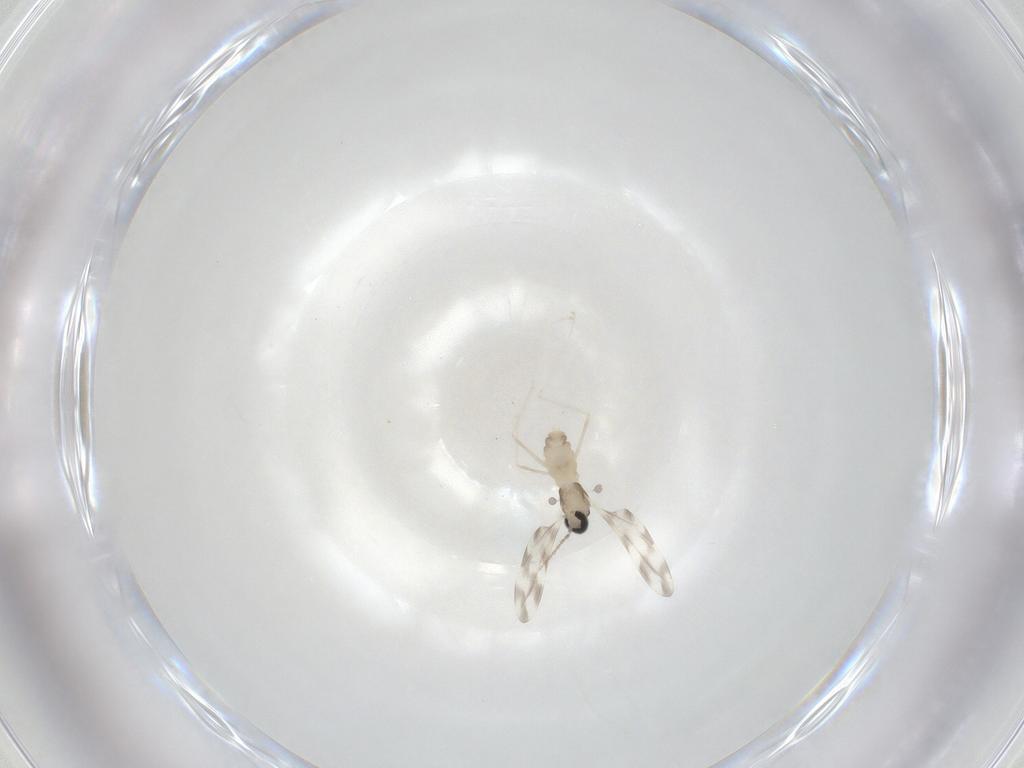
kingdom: Animalia
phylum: Arthropoda
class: Insecta
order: Diptera
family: Cecidomyiidae
